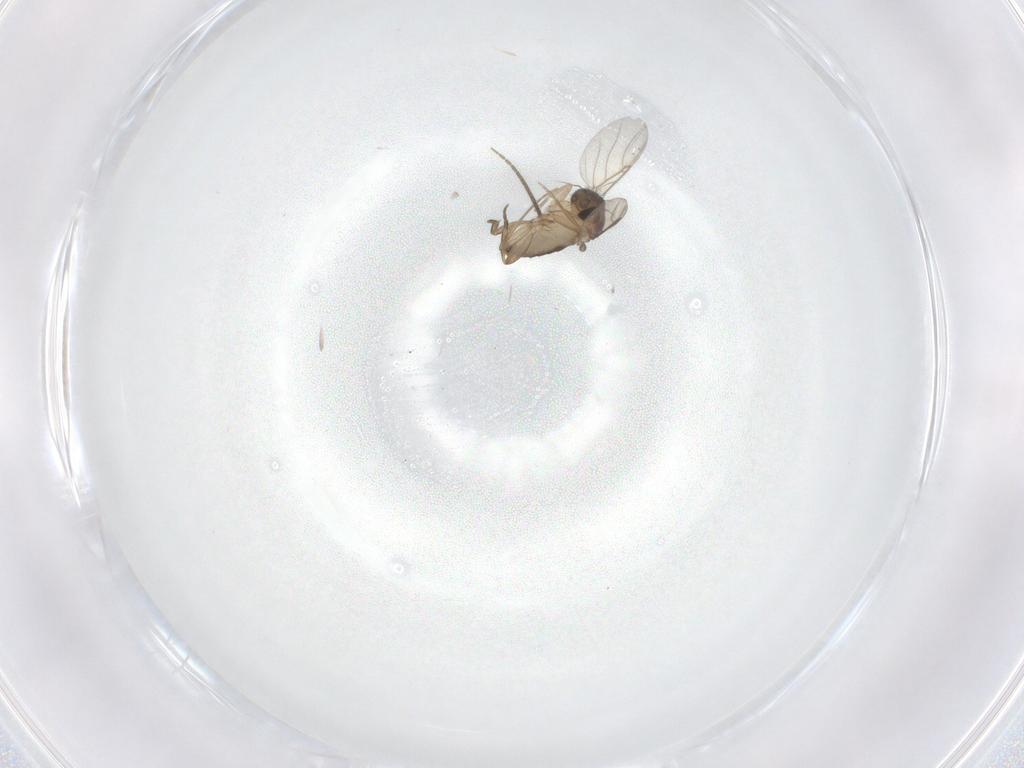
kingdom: Animalia
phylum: Arthropoda
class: Insecta
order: Diptera
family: Phoridae
